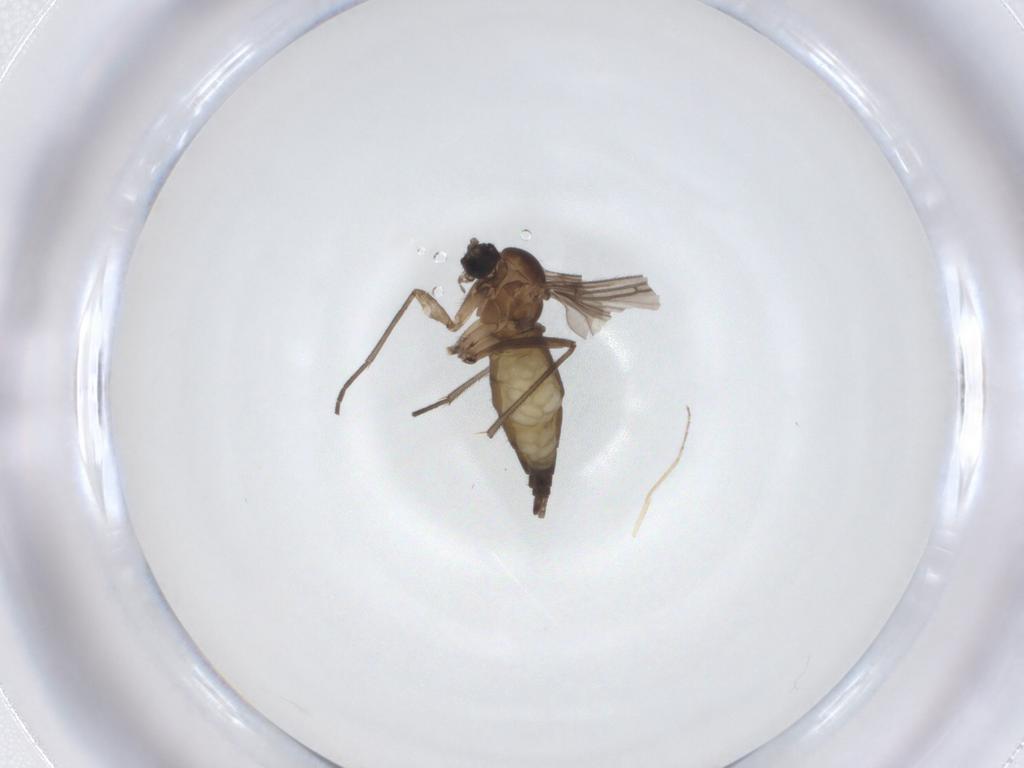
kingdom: Animalia
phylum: Arthropoda
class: Insecta
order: Diptera
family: Sciaridae
